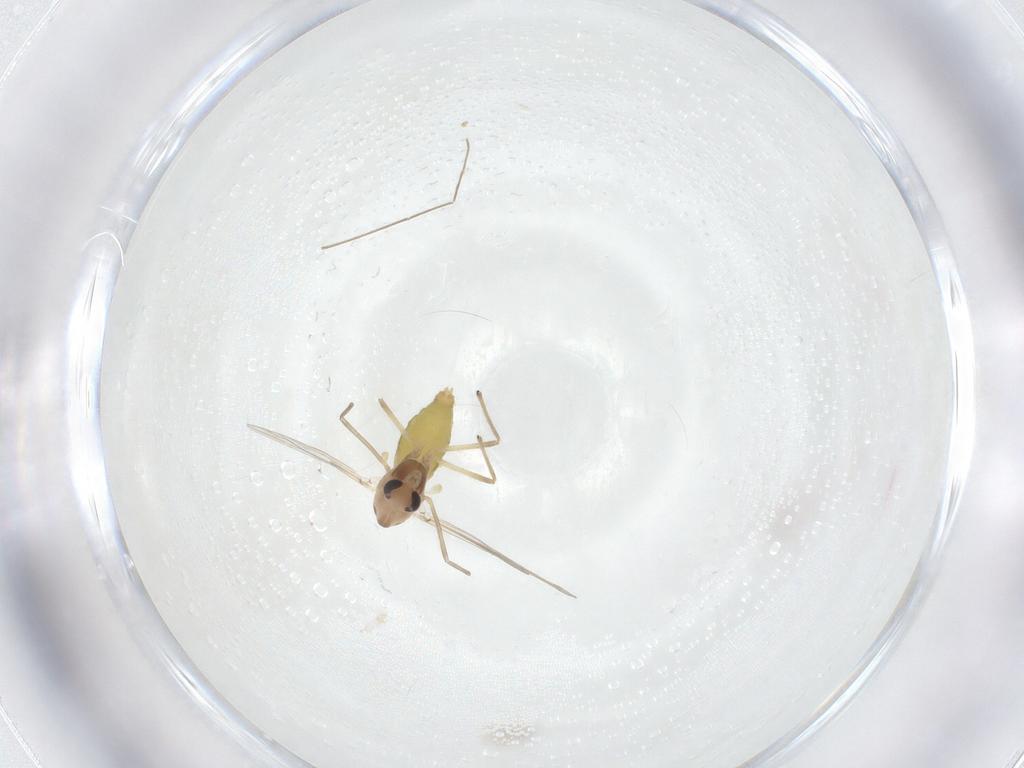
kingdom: Animalia
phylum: Arthropoda
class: Insecta
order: Diptera
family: Chironomidae
